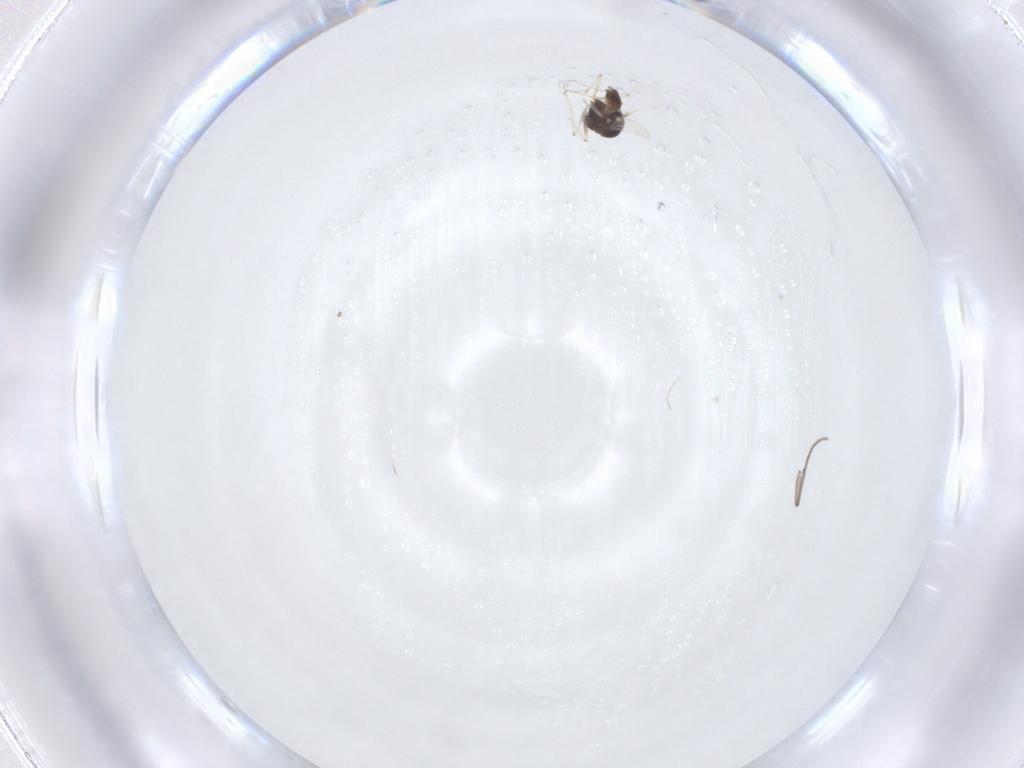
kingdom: Animalia
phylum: Arthropoda
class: Insecta
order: Diptera
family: Chironomidae
